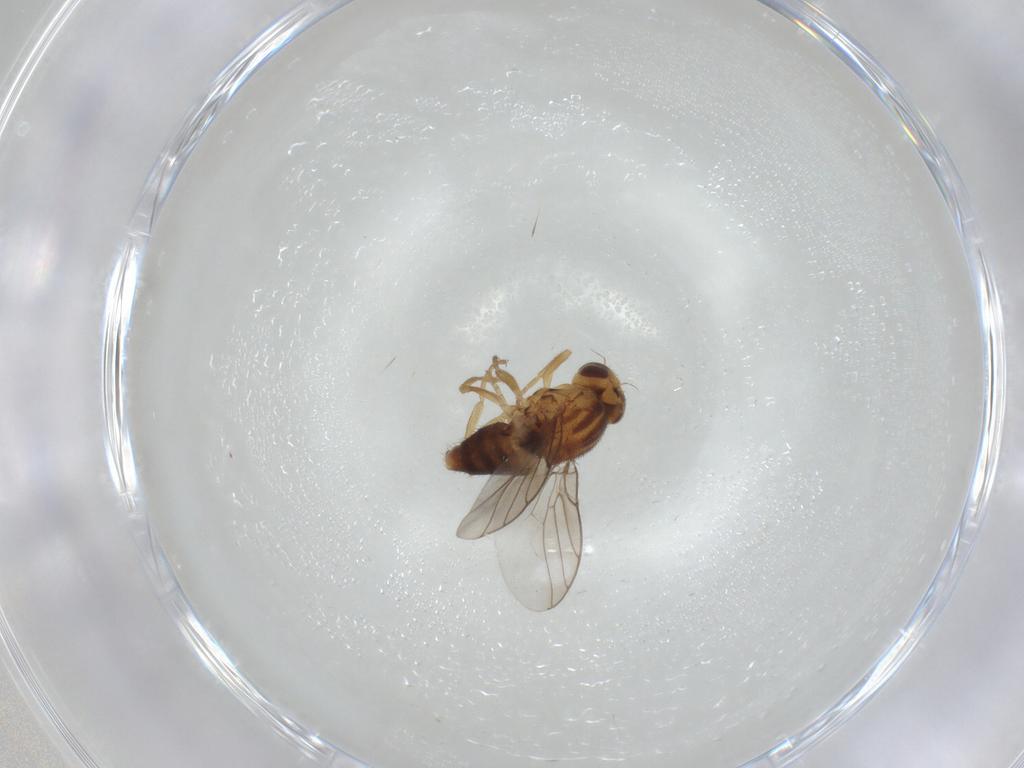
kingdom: Animalia
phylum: Arthropoda
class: Insecta
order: Diptera
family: Chloropidae
